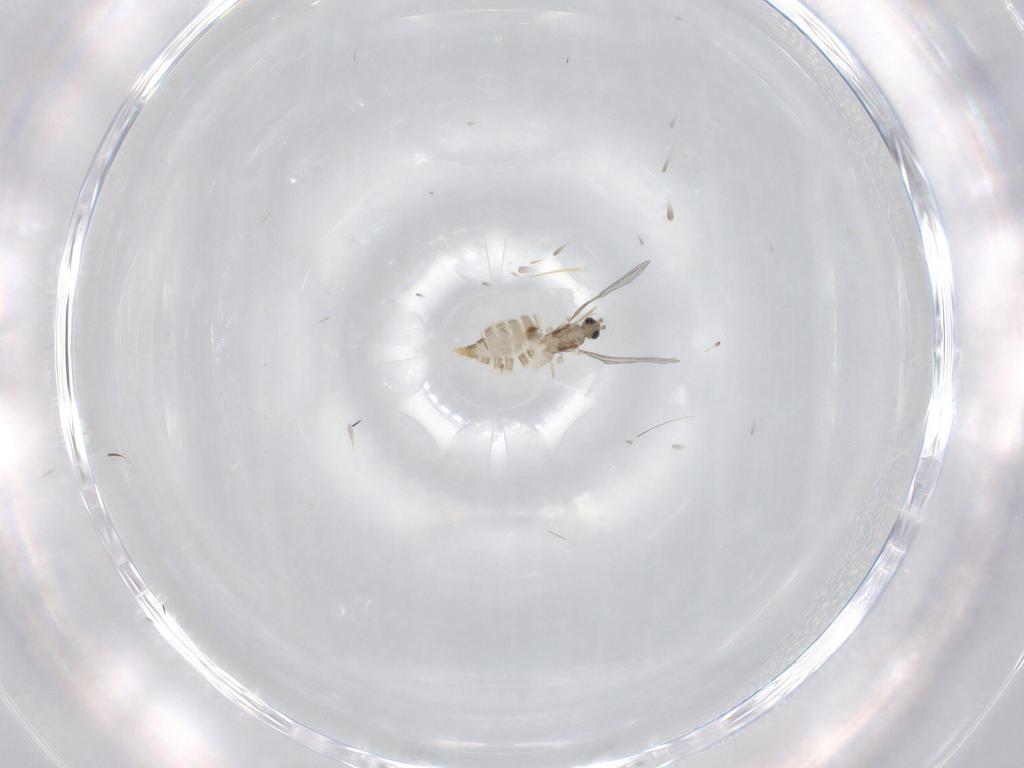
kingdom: Animalia
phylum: Arthropoda
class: Insecta
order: Diptera
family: Cecidomyiidae
